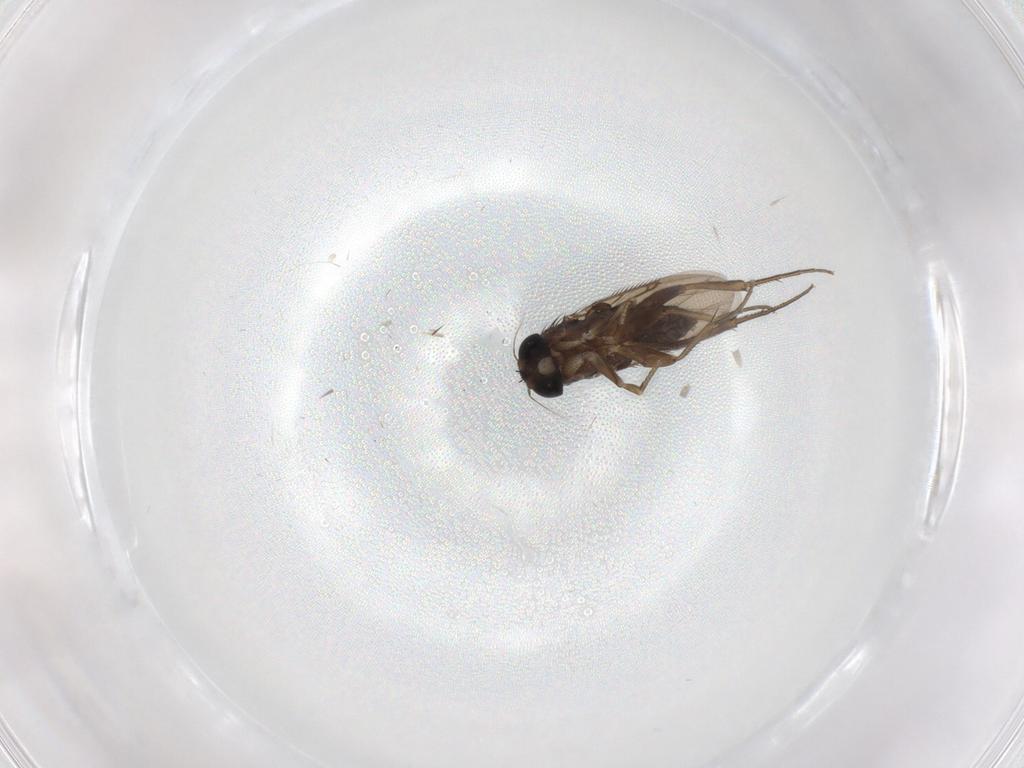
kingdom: Animalia
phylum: Arthropoda
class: Insecta
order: Diptera
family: Phoridae
